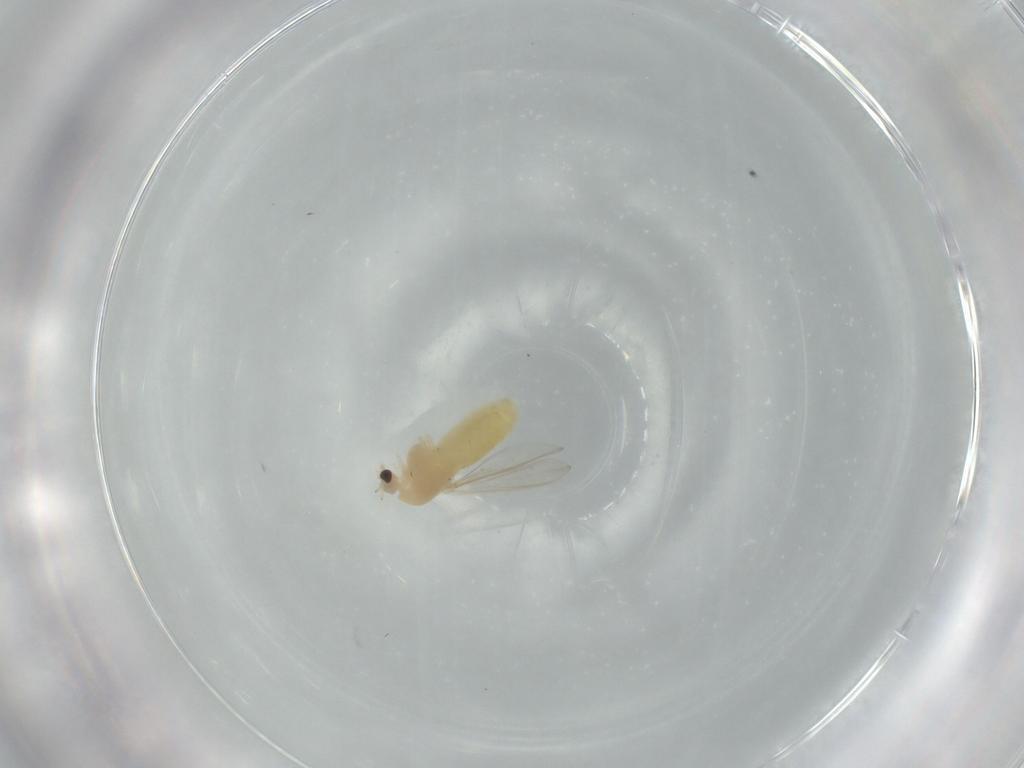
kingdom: Animalia
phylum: Arthropoda
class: Insecta
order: Diptera
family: Chironomidae
